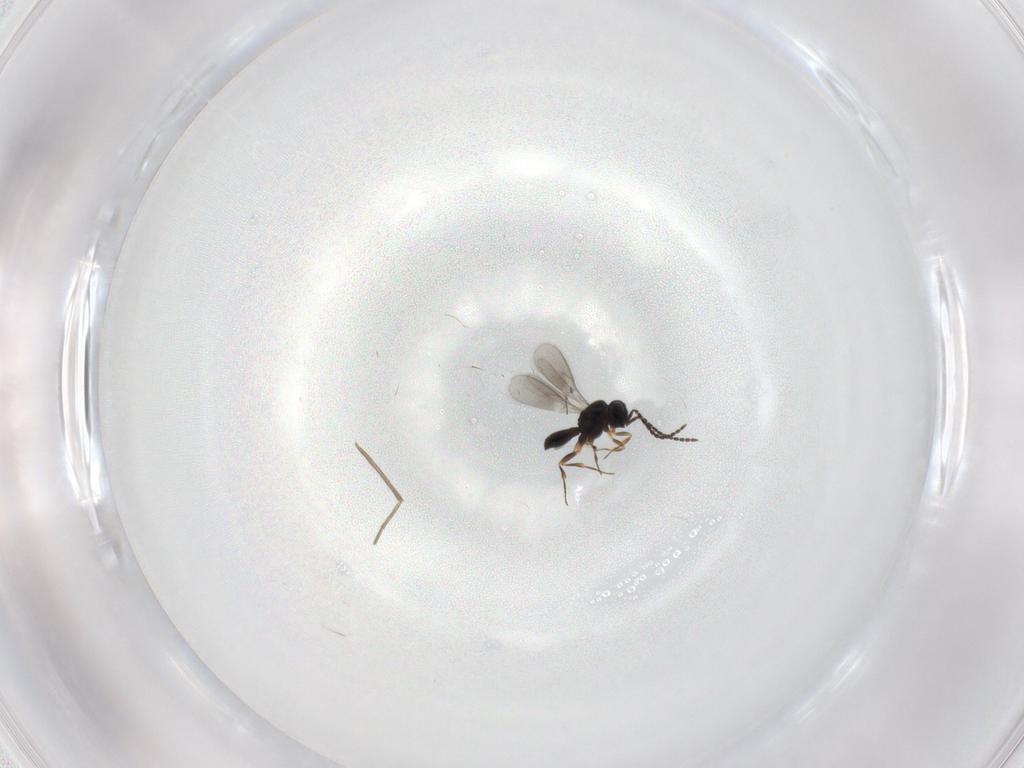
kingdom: Animalia
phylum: Arthropoda
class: Insecta
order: Hymenoptera
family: Scelionidae
